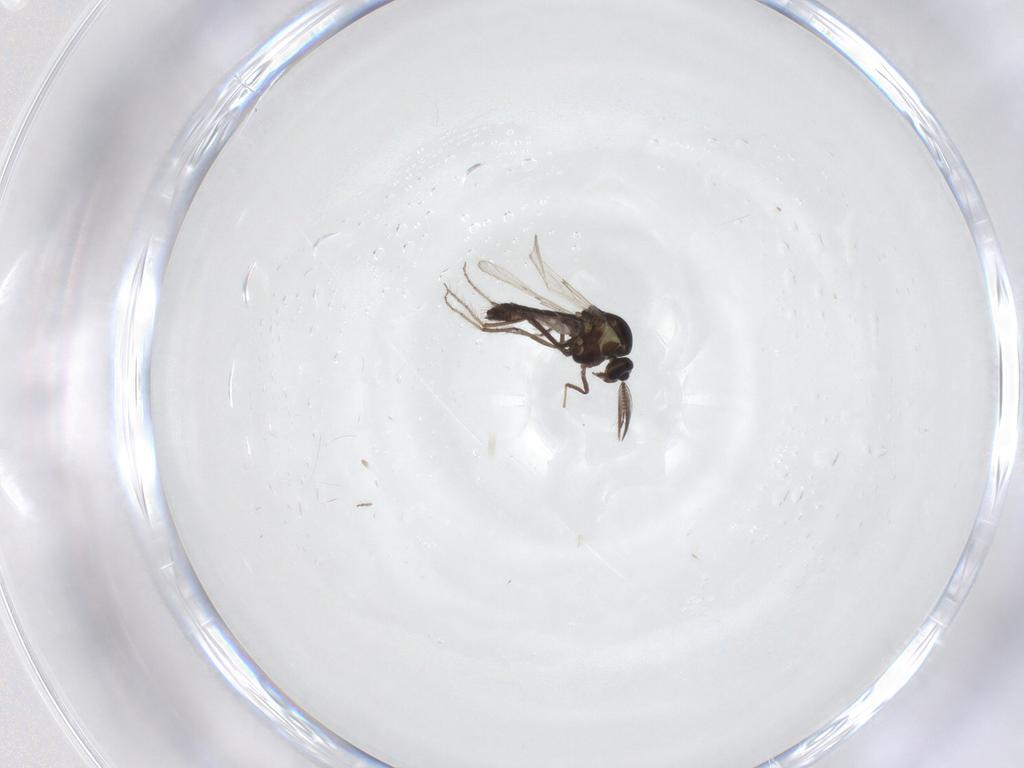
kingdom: Animalia
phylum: Arthropoda
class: Insecta
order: Diptera
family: Ceratopogonidae
